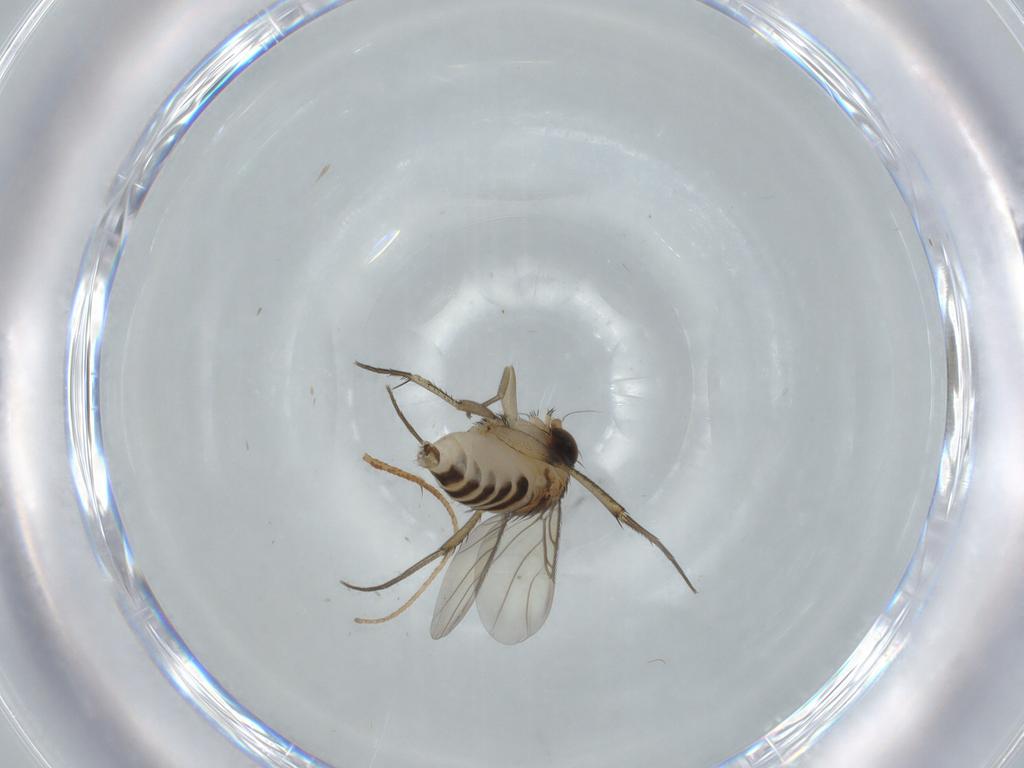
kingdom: Animalia
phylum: Arthropoda
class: Insecta
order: Diptera
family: Phoridae
